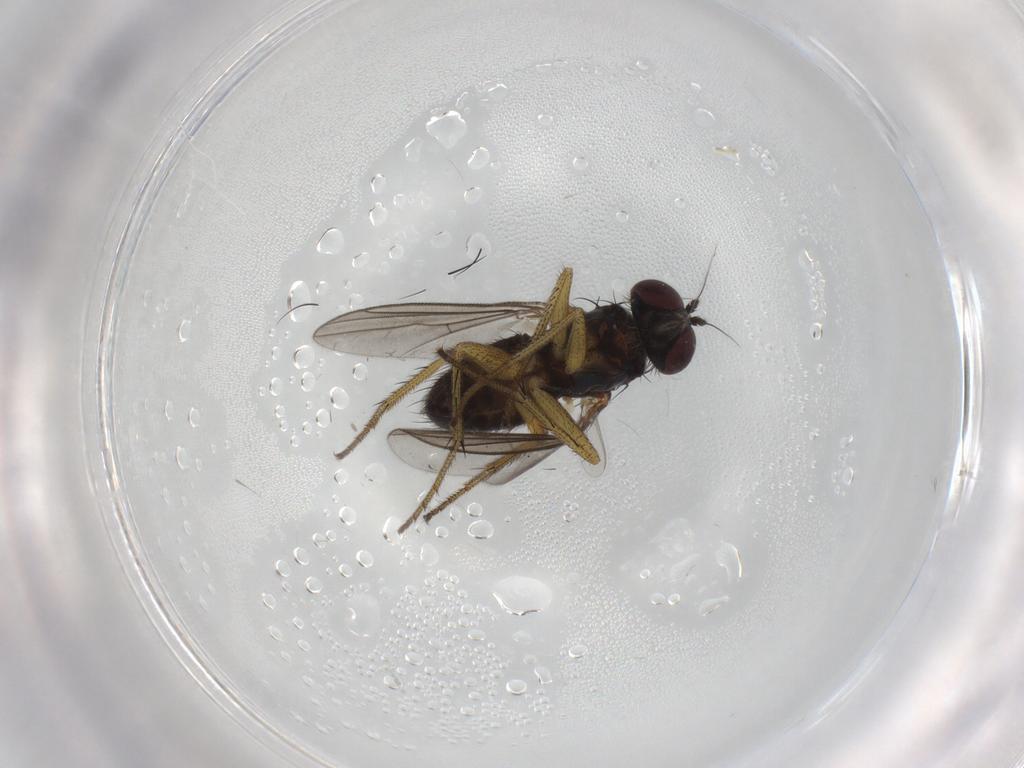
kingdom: Animalia
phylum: Arthropoda
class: Insecta
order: Diptera
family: Dolichopodidae
